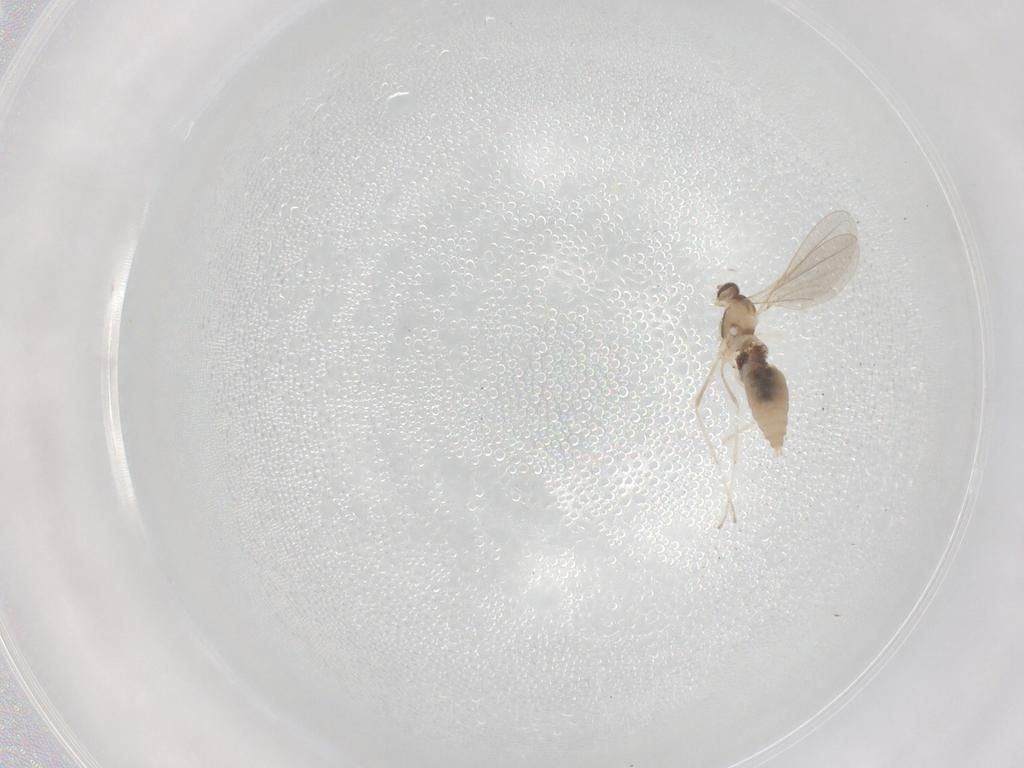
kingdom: Animalia
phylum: Arthropoda
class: Insecta
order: Diptera
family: Cecidomyiidae
